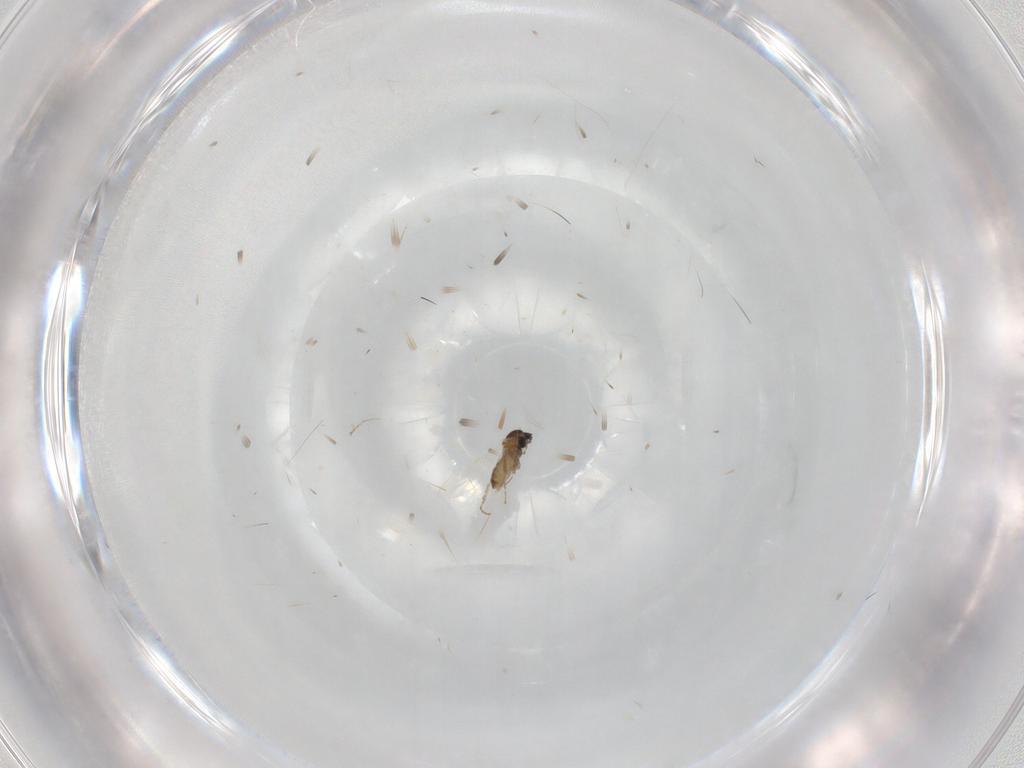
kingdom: Animalia
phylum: Arthropoda
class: Insecta
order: Diptera
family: Cecidomyiidae
